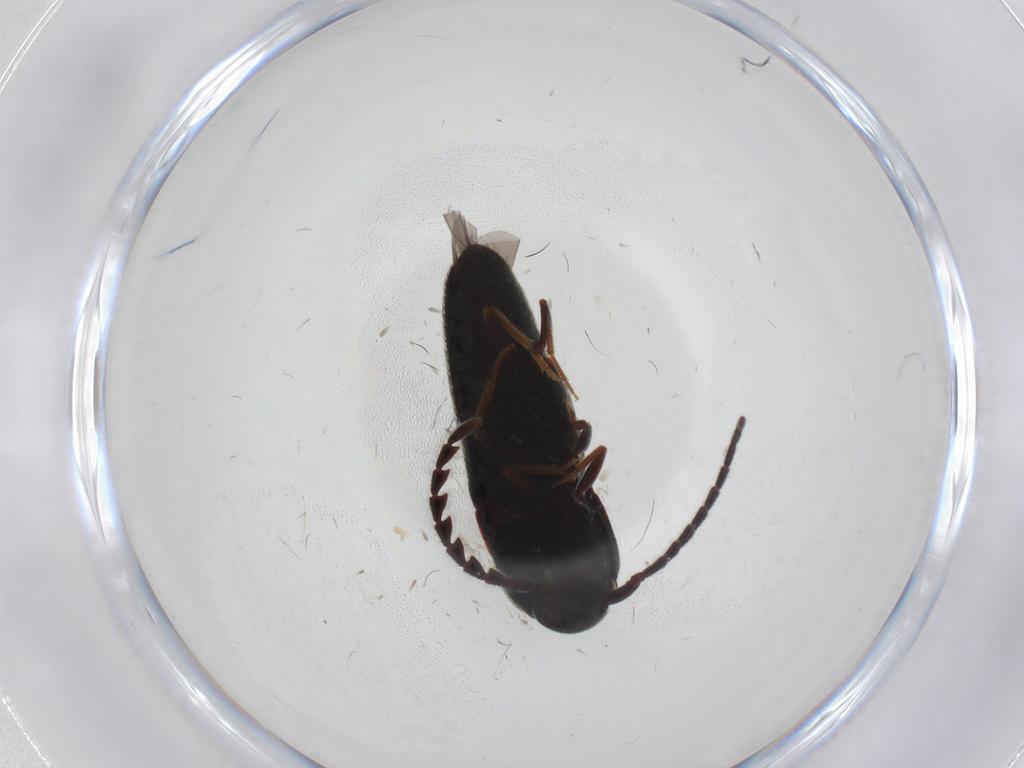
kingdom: Animalia
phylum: Arthropoda
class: Insecta
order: Coleoptera
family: Eucnemidae
